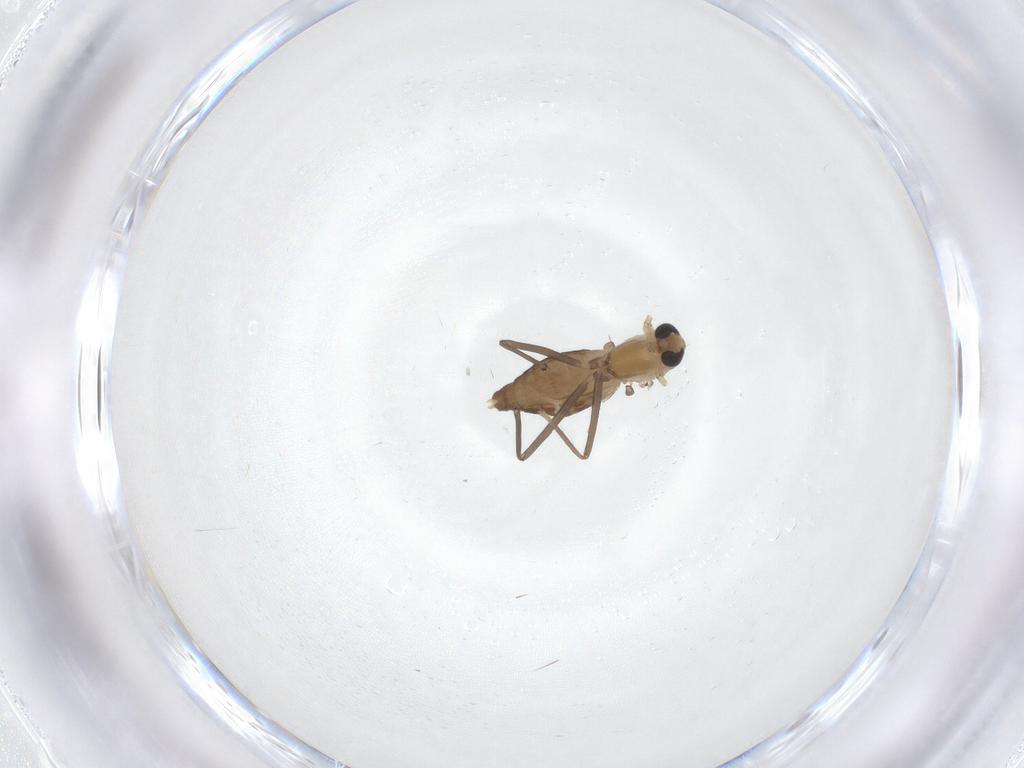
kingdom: Animalia
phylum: Arthropoda
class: Insecta
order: Diptera
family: Chironomidae
